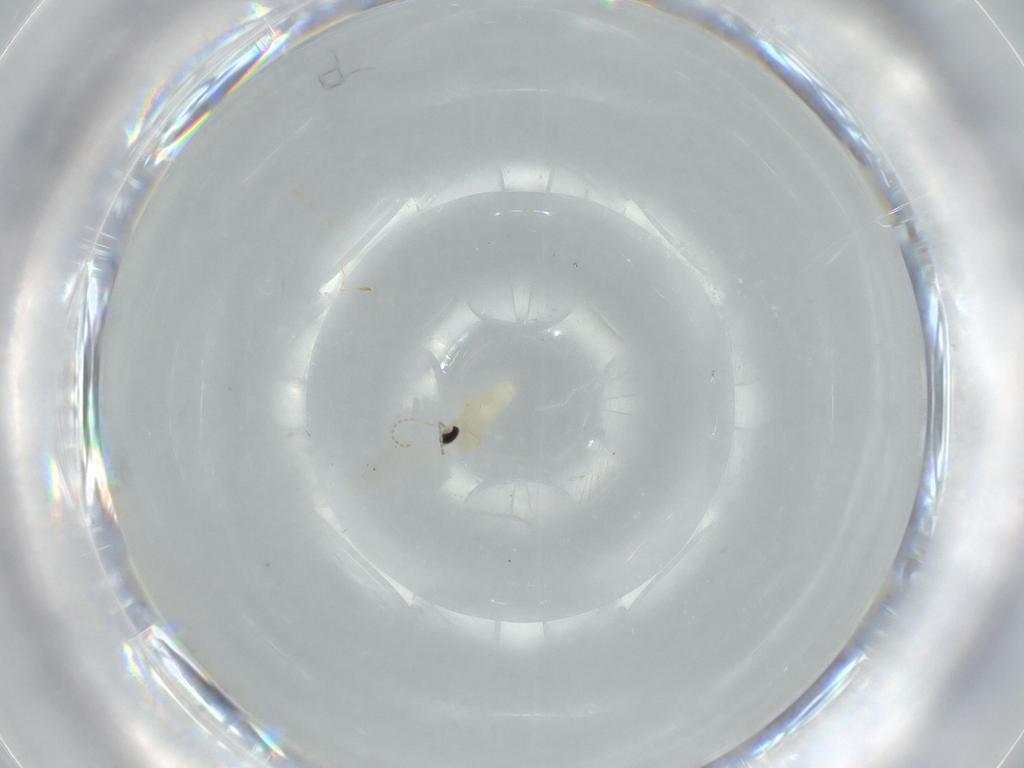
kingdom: Animalia
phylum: Arthropoda
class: Insecta
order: Diptera
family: Cecidomyiidae
